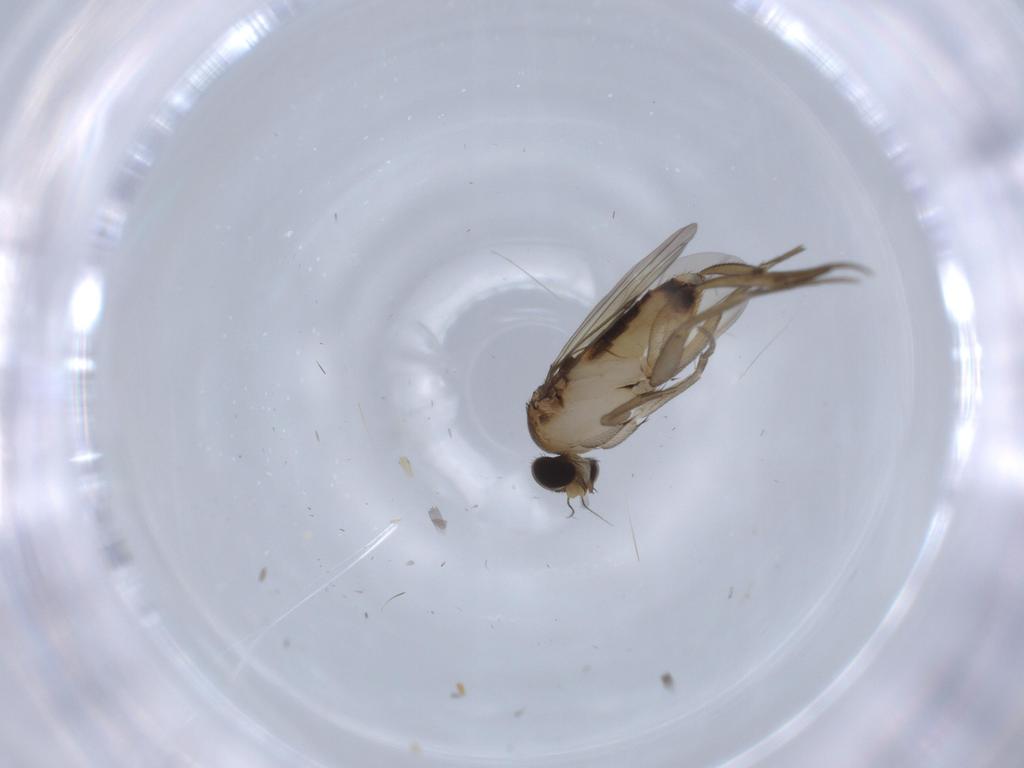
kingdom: Animalia
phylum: Arthropoda
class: Insecta
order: Diptera
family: Phoridae
